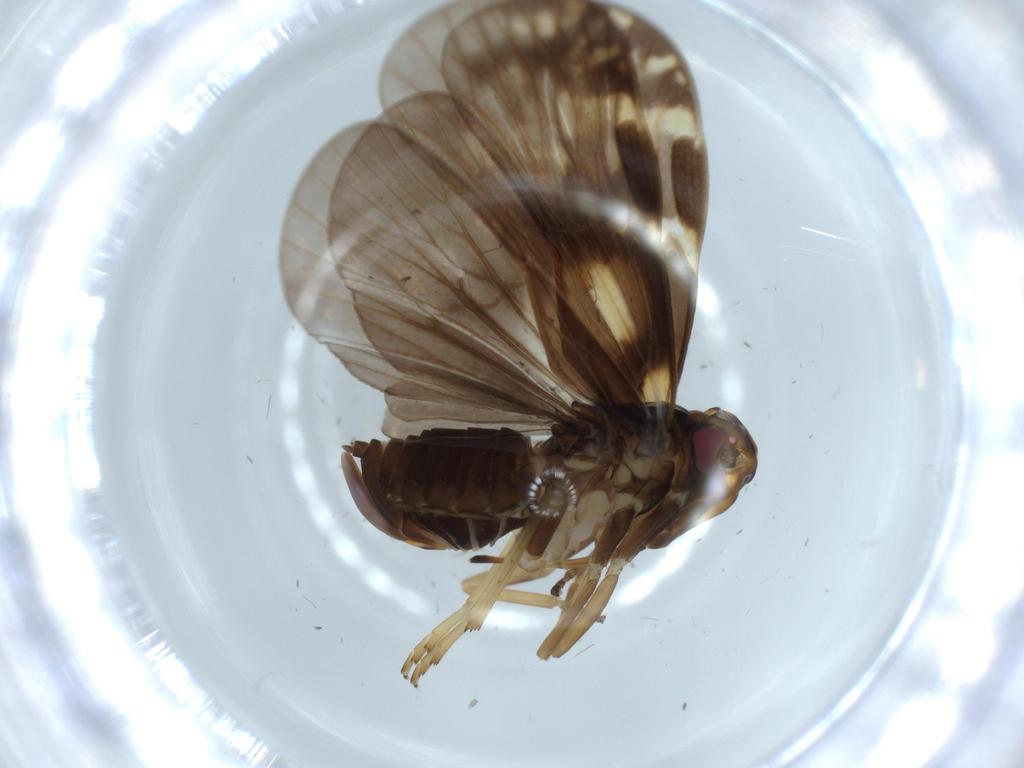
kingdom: Animalia
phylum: Arthropoda
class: Insecta
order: Hemiptera
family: Cixiidae
